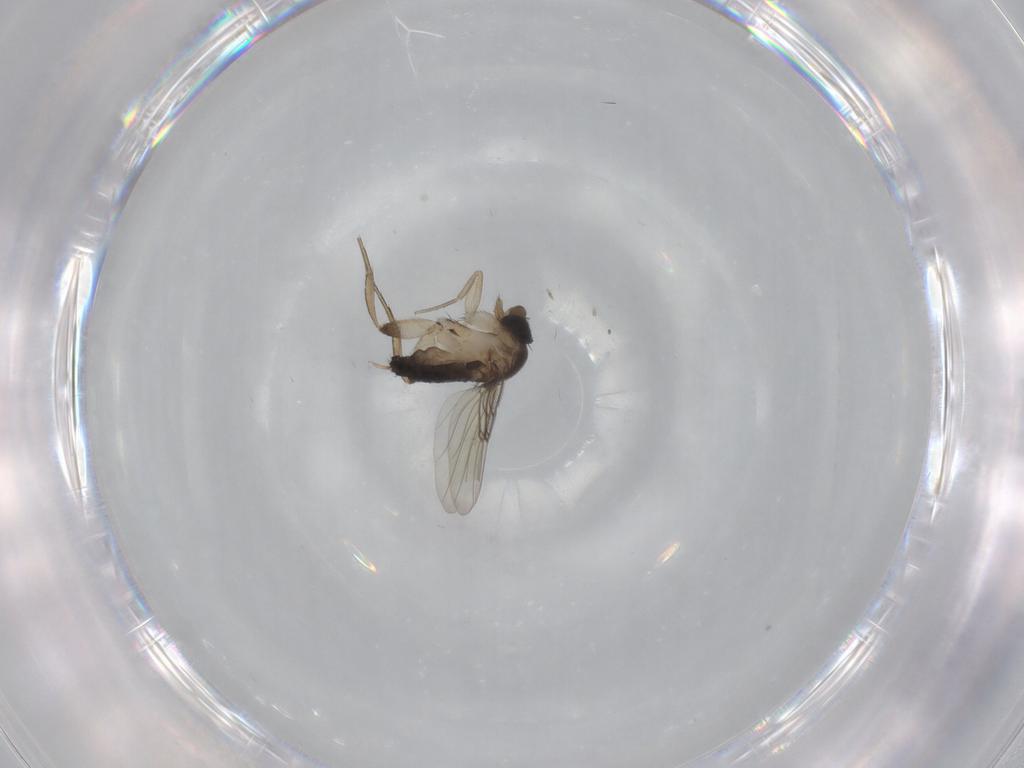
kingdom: Animalia
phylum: Arthropoda
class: Insecta
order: Diptera
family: Phoridae
